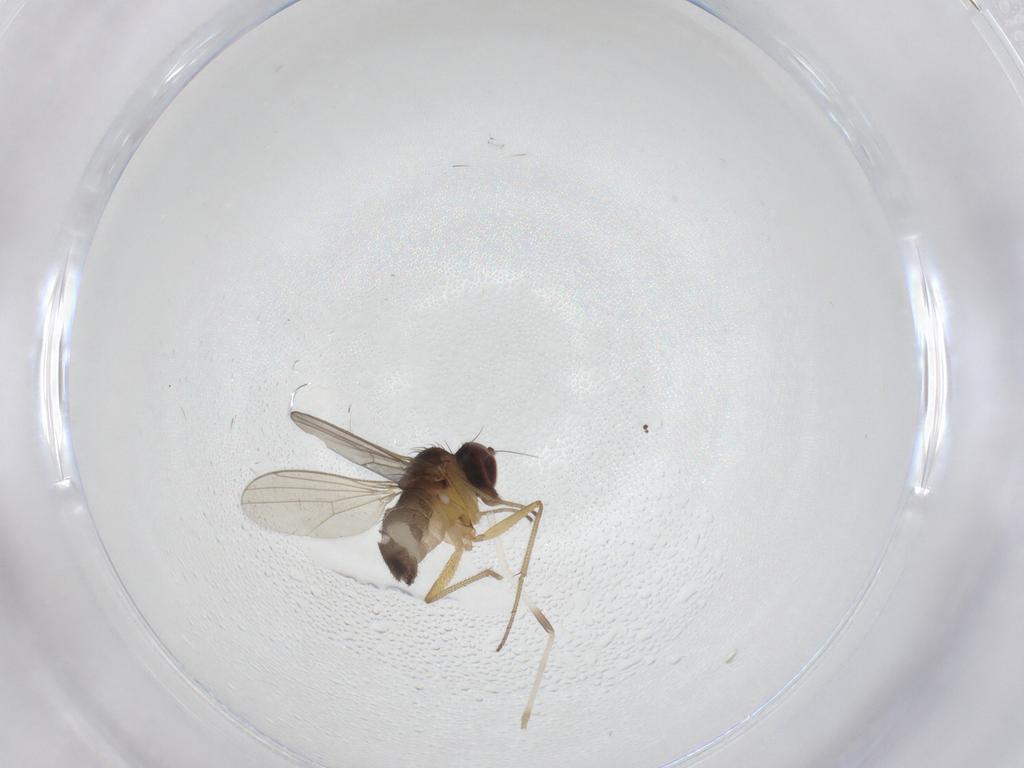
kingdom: Animalia
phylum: Arthropoda
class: Insecta
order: Diptera
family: Dolichopodidae
